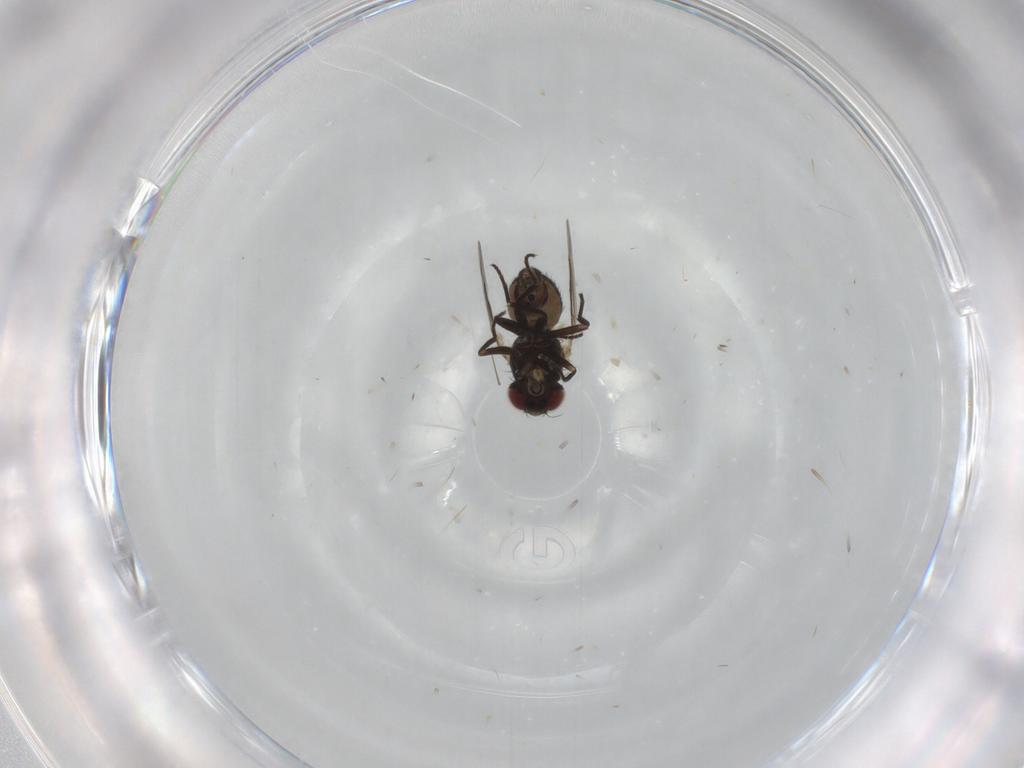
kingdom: Animalia
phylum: Arthropoda
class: Insecta
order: Diptera
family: Agromyzidae
